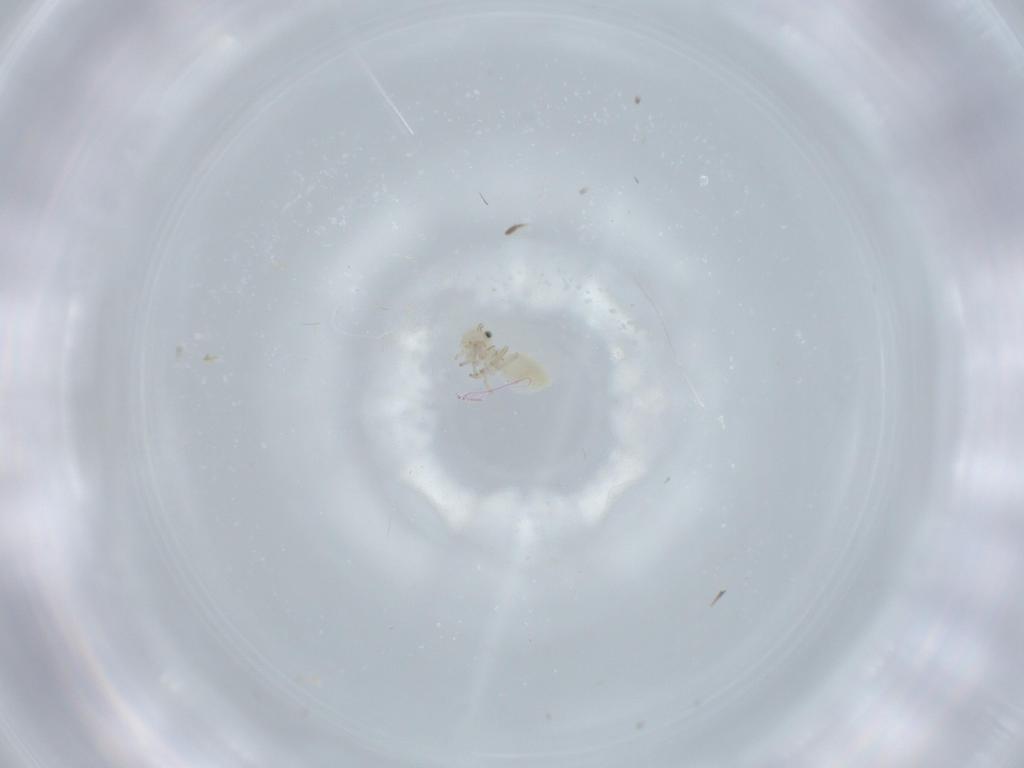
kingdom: Animalia
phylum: Arthropoda
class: Insecta
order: Psocodea
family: Caeciliusidae
